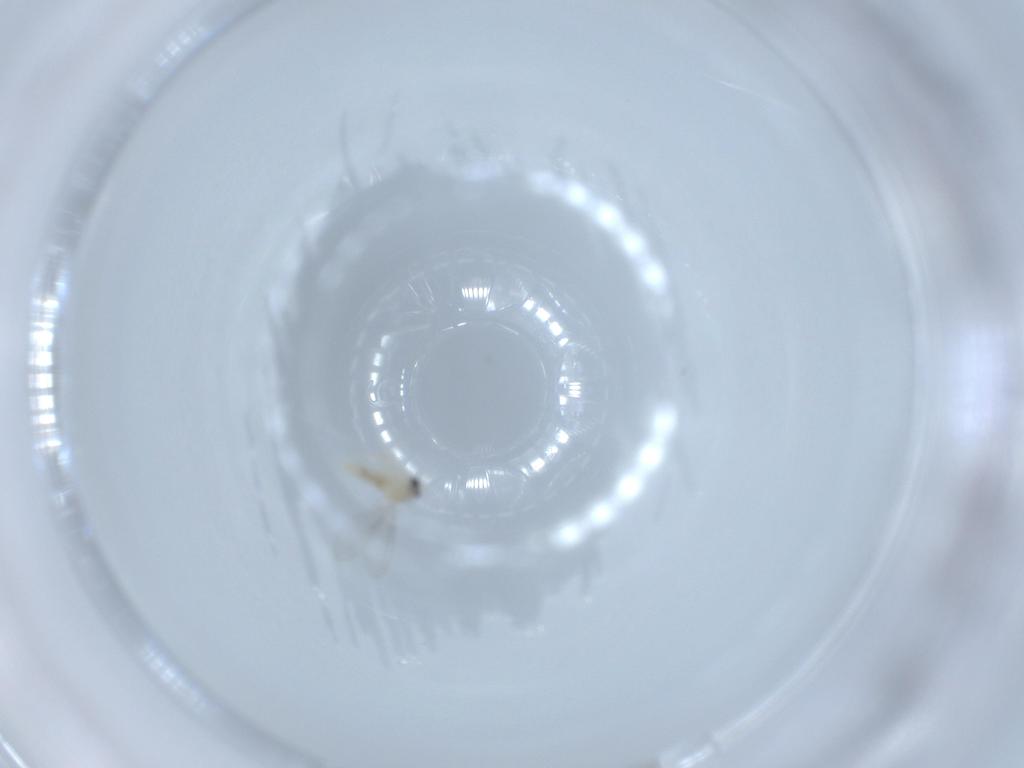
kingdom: Animalia
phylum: Arthropoda
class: Insecta
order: Diptera
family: Cecidomyiidae
